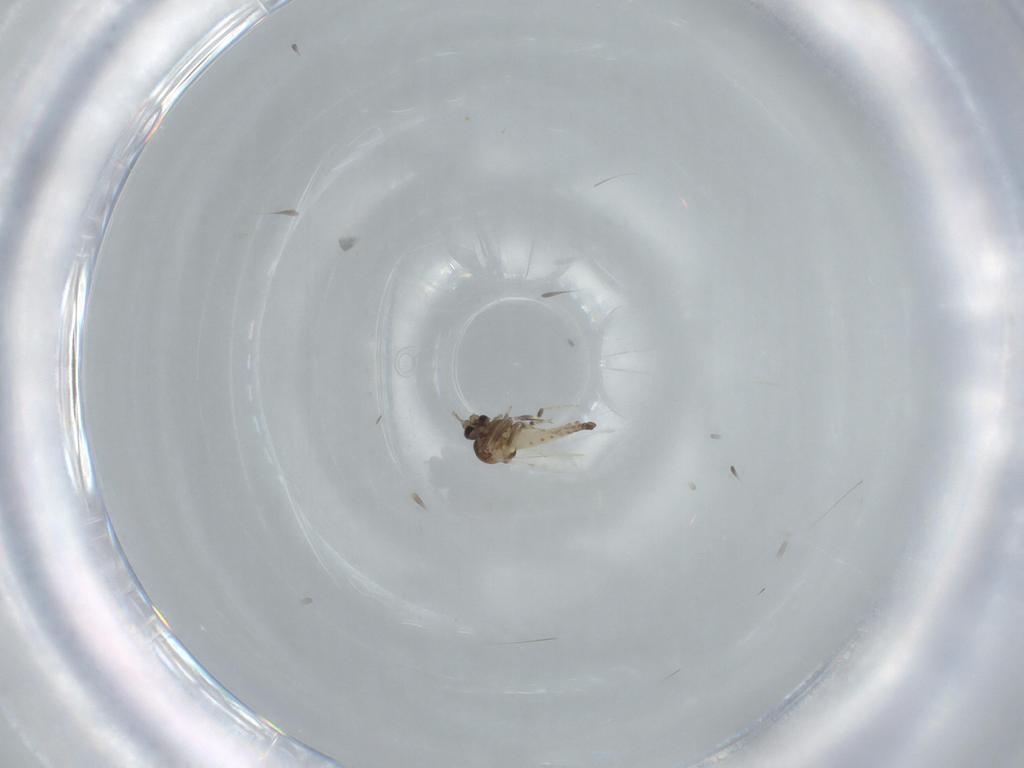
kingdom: Animalia
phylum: Arthropoda
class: Insecta
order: Diptera
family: Ceratopogonidae
